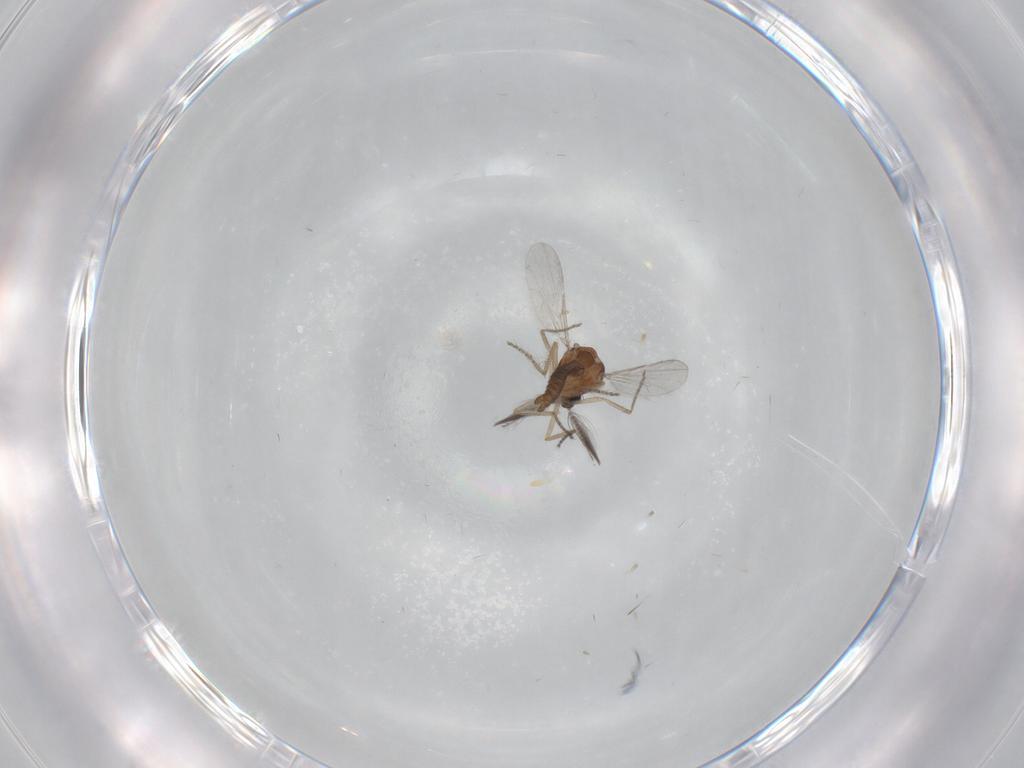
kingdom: Animalia
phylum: Arthropoda
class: Insecta
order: Diptera
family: Ceratopogonidae
